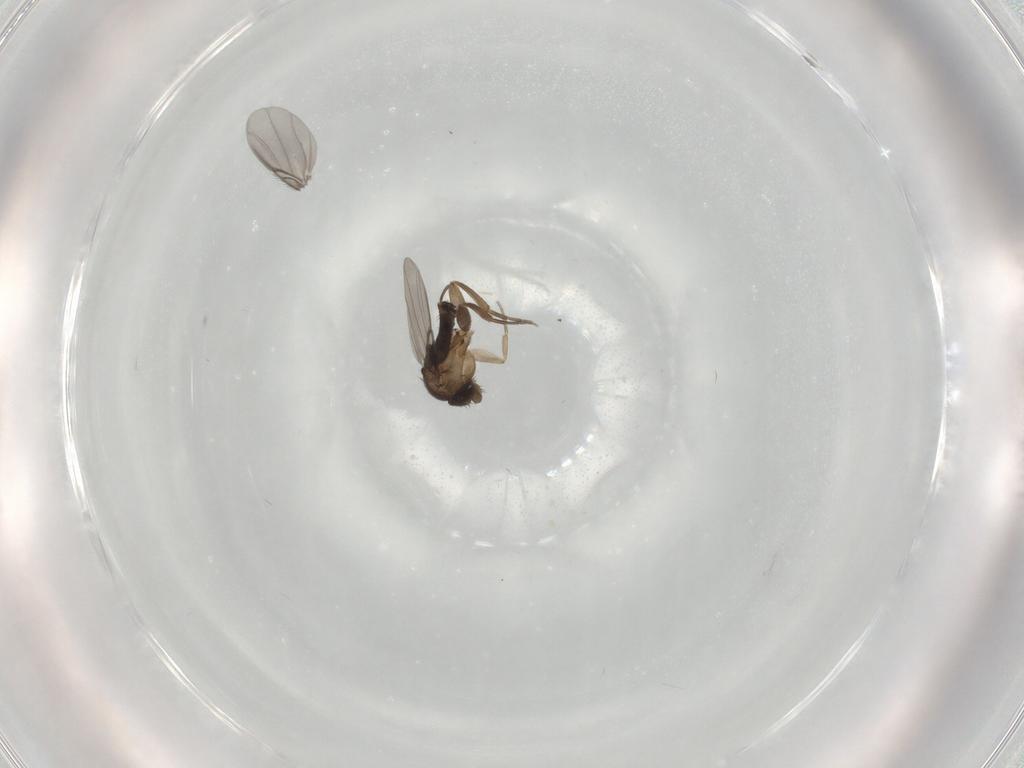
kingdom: Animalia
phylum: Arthropoda
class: Insecta
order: Diptera
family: Phoridae
